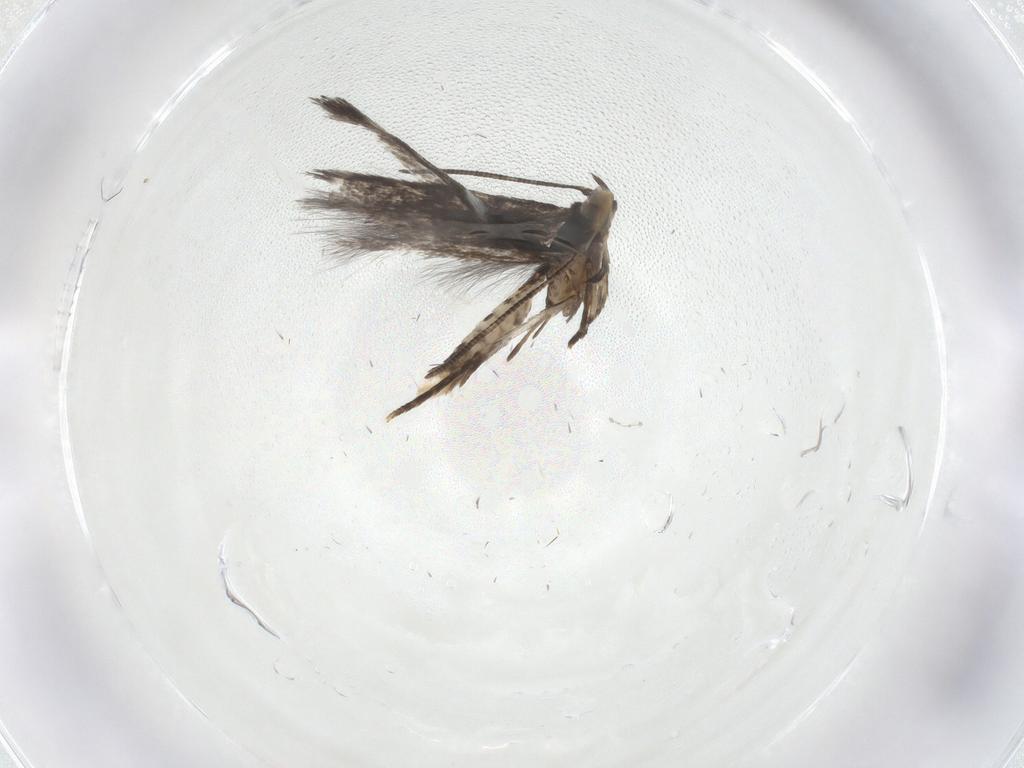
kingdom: Animalia
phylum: Arthropoda
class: Insecta
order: Lepidoptera
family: Gelechiidae
